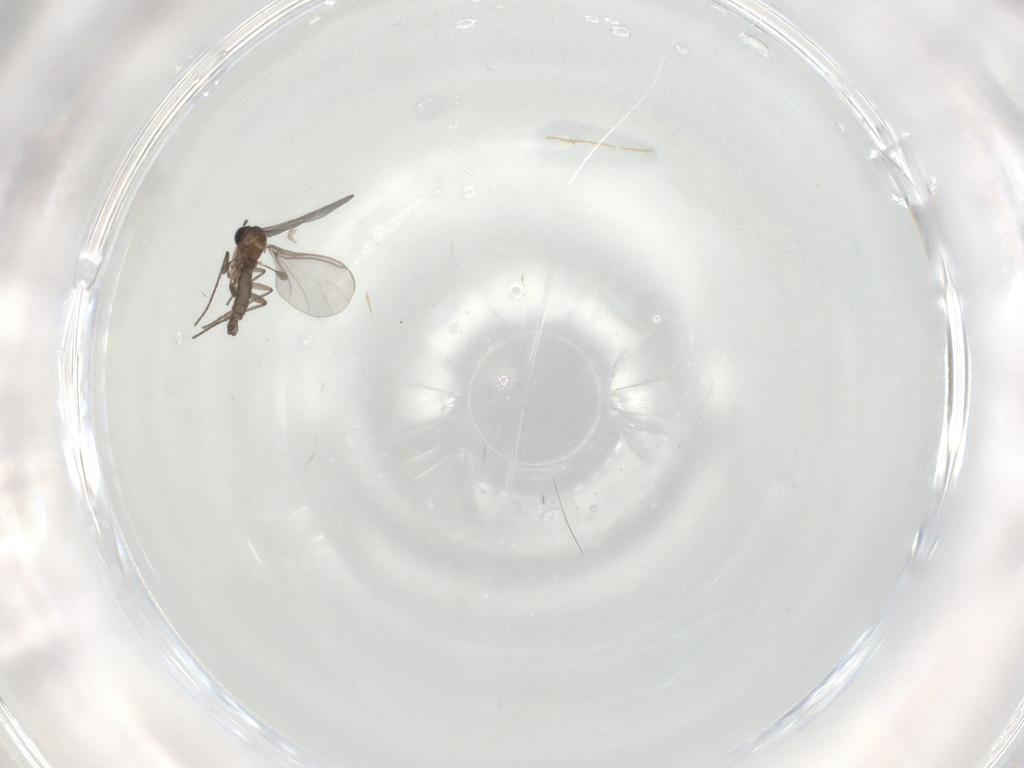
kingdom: Animalia
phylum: Arthropoda
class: Insecta
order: Diptera
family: Sciaridae
